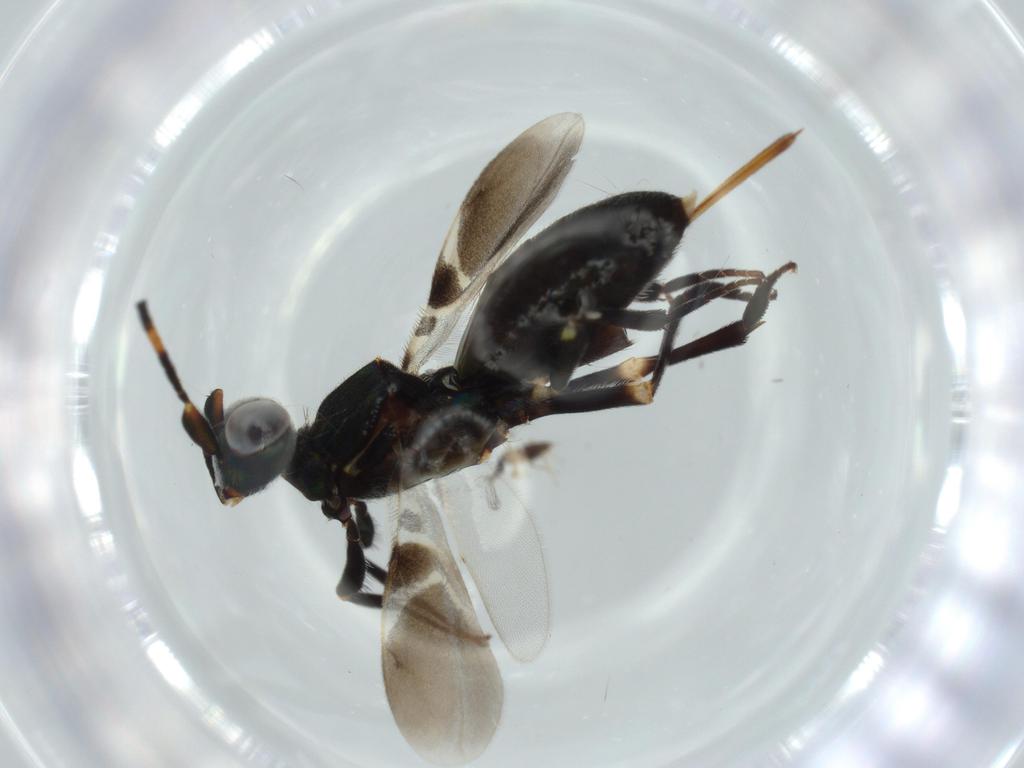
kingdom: Animalia
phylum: Arthropoda
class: Insecta
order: Hymenoptera
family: Eupelmidae
